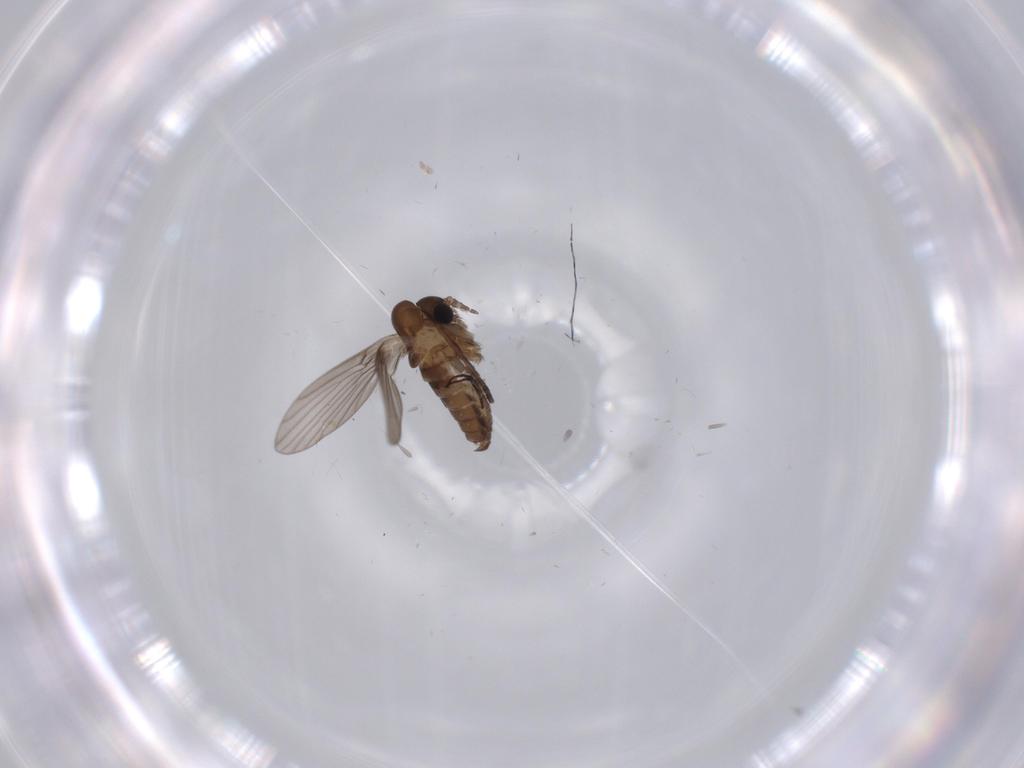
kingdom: Animalia
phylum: Arthropoda
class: Insecta
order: Diptera
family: Psychodidae
